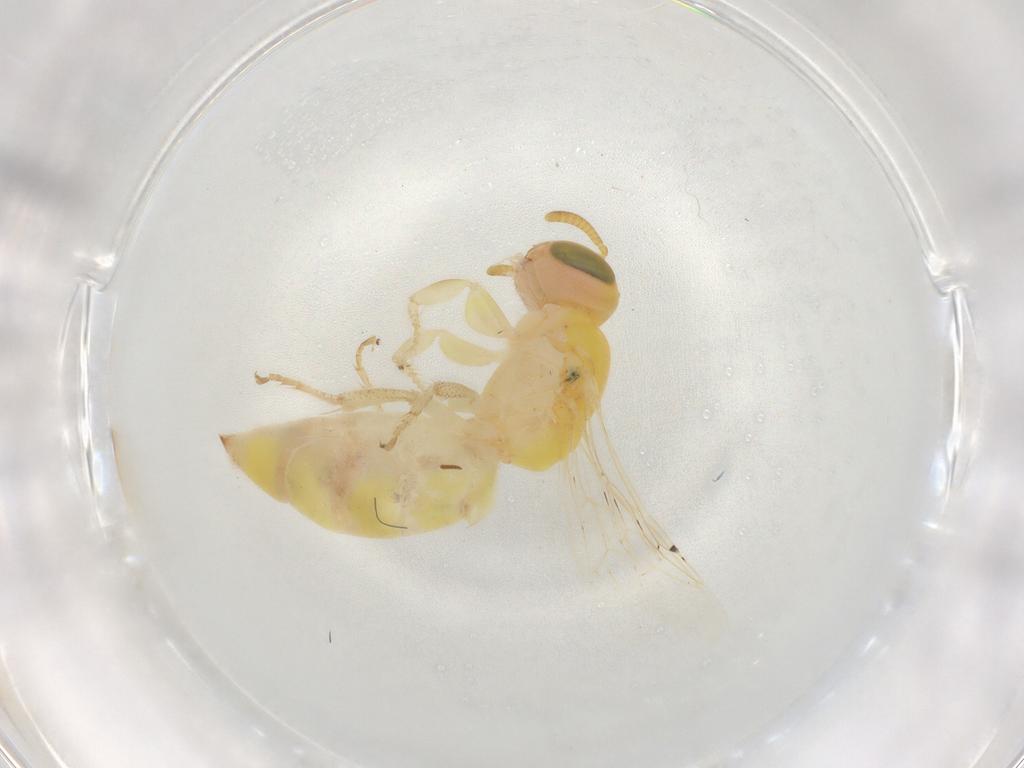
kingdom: Animalia
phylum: Arthropoda
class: Insecta
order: Hymenoptera
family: Colletidae
